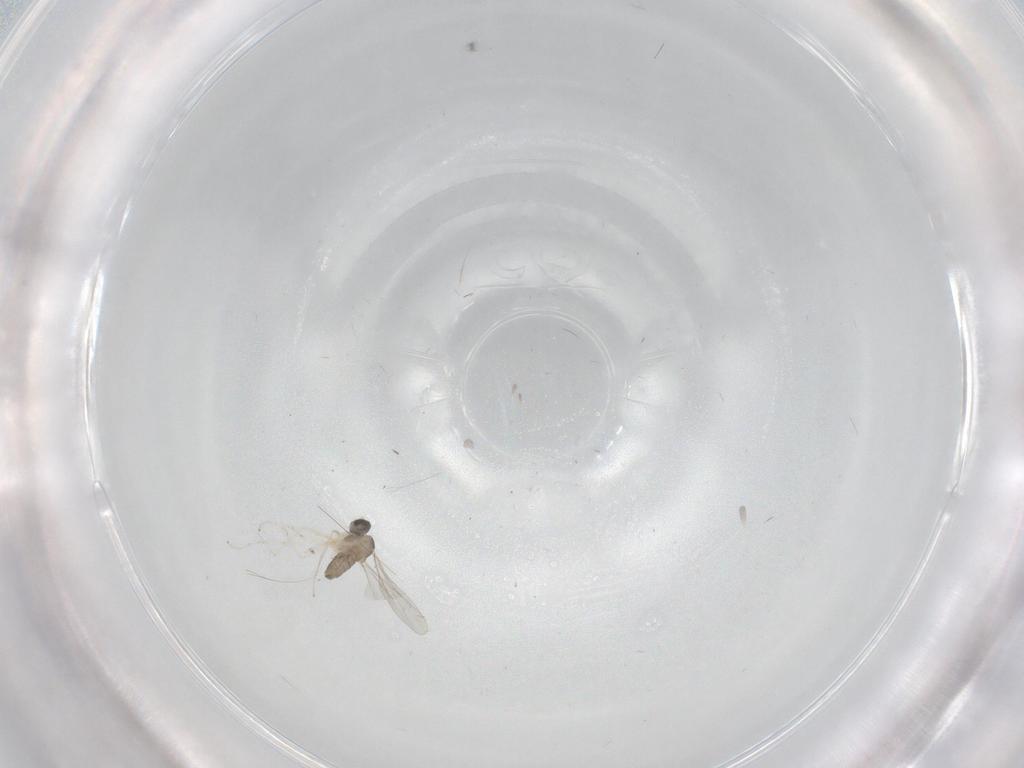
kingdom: Animalia
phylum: Arthropoda
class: Insecta
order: Diptera
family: Cecidomyiidae
